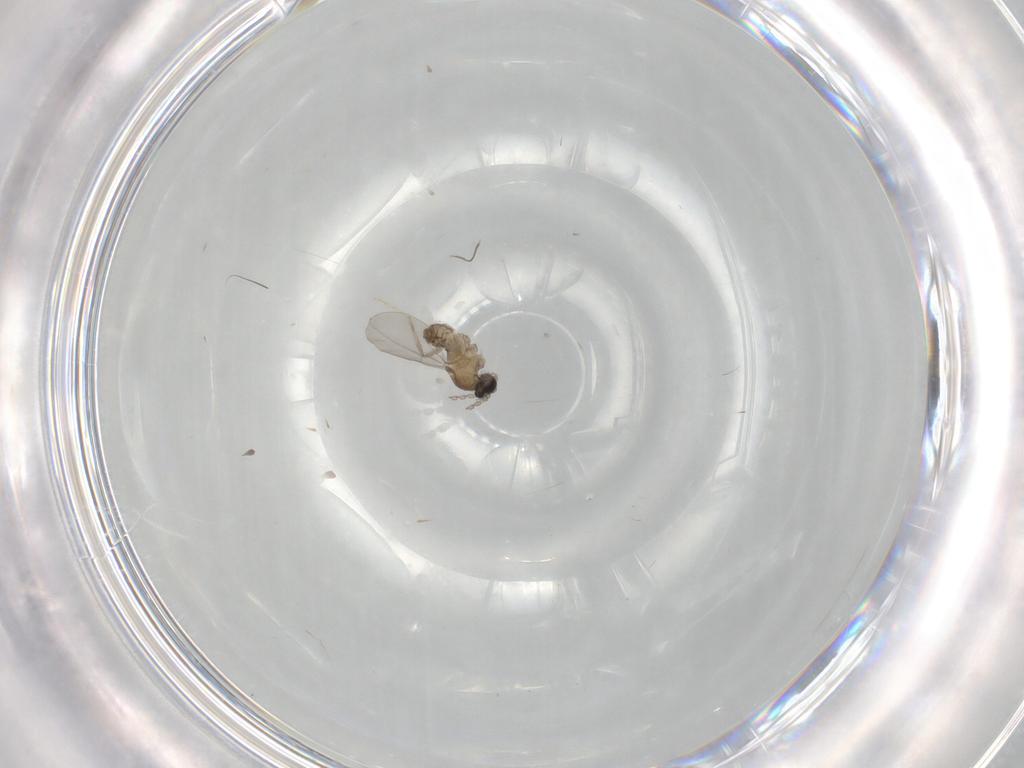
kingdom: Animalia
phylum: Arthropoda
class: Insecta
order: Diptera
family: Cecidomyiidae
